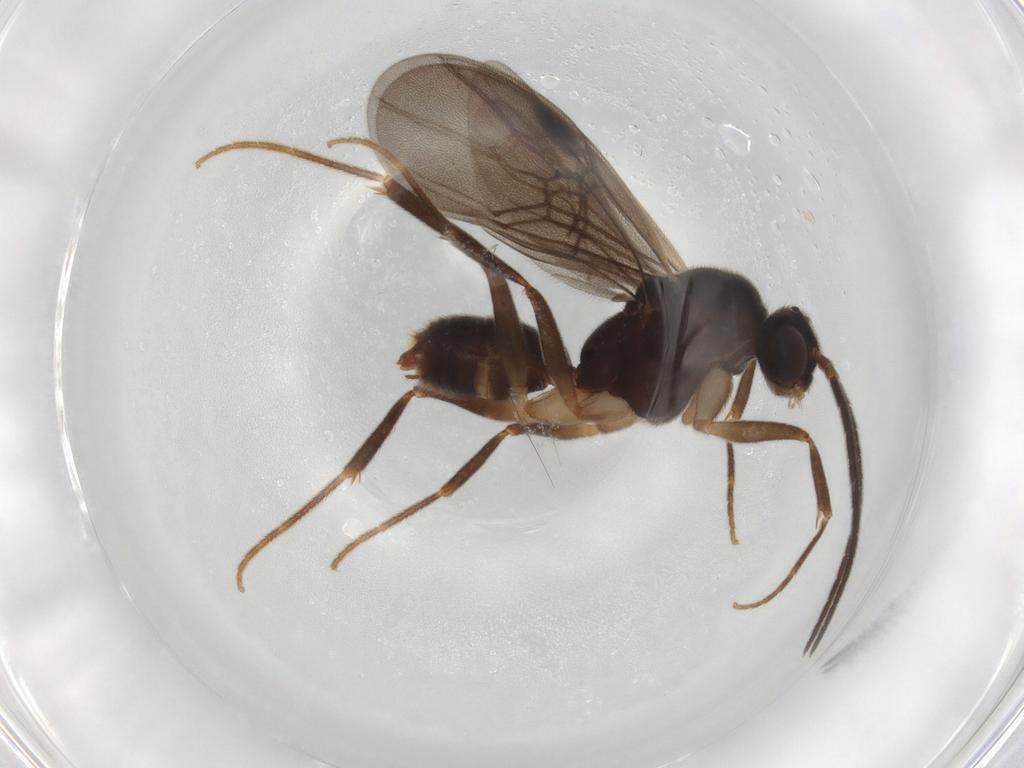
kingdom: Animalia
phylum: Arthropoda
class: Insecta
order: Hymenoptera
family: Formicidae
